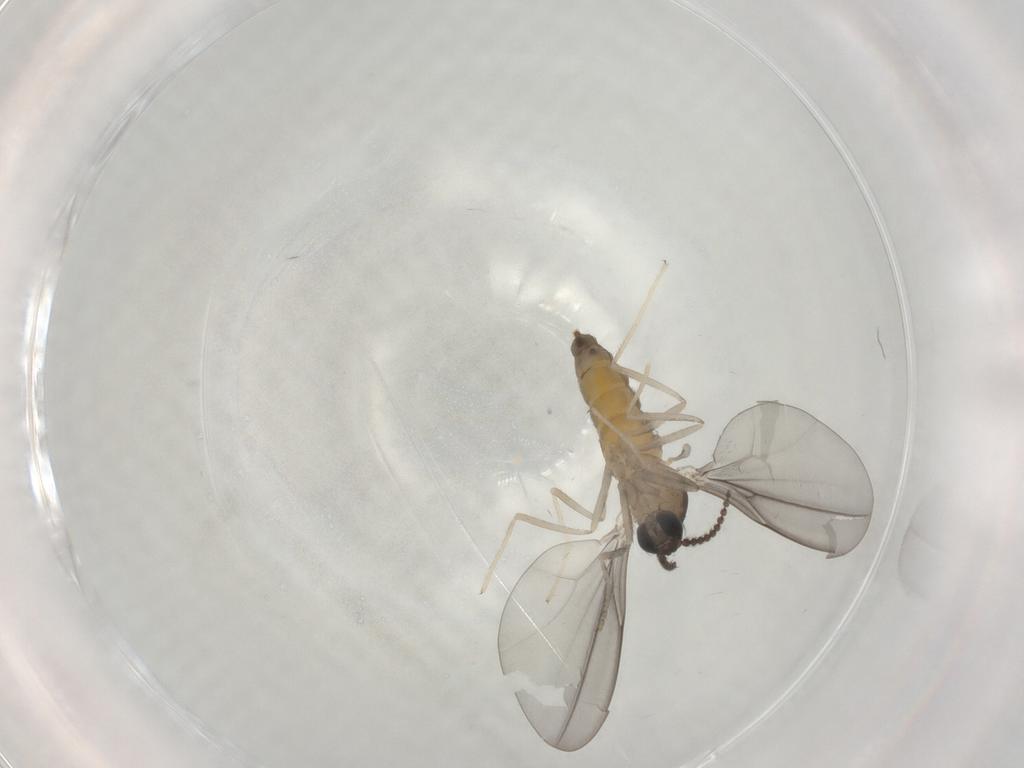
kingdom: Animalia
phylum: Arthropoda
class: Insecta
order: Diptera
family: Cecidomyiidae
